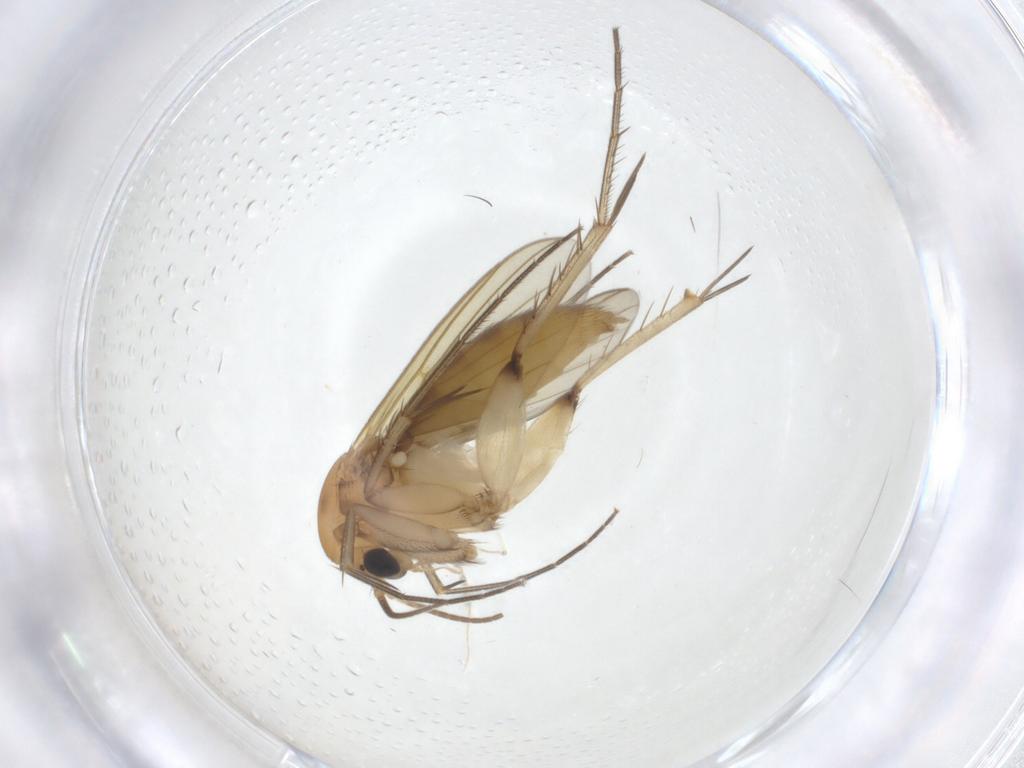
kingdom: Animalia
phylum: Arthropoda
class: Insecta
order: Diptera
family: Mycetophilidae
